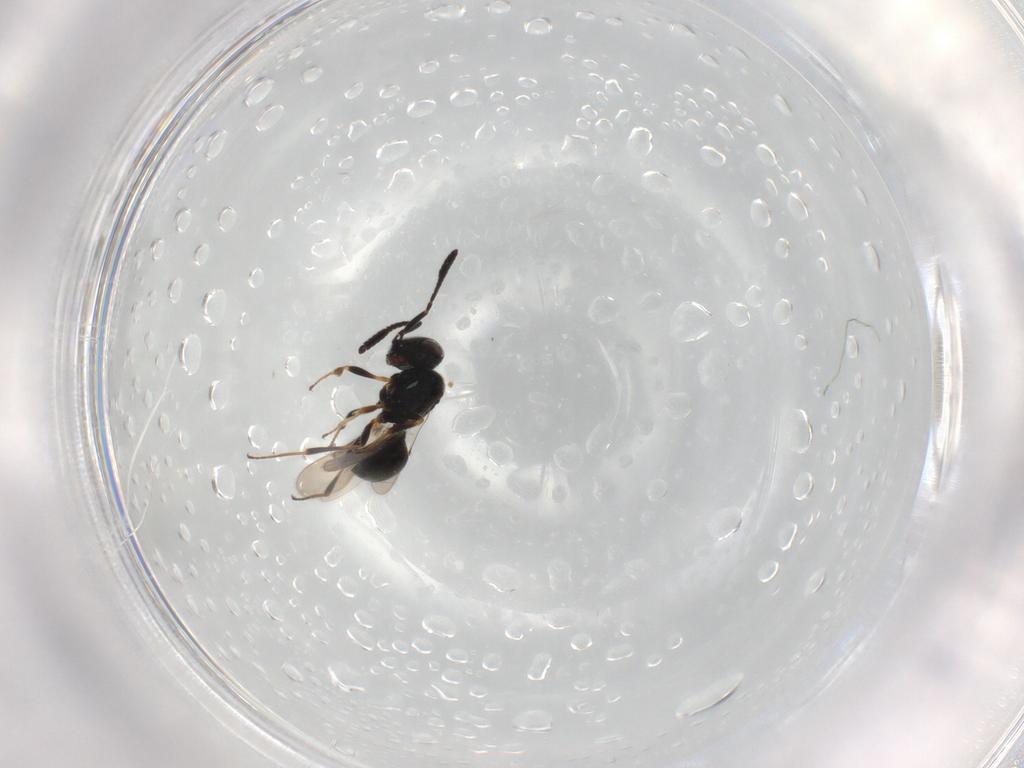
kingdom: Animalia
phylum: Arthropoda
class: Insecta
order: Hymenoptera
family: Scelionidae
